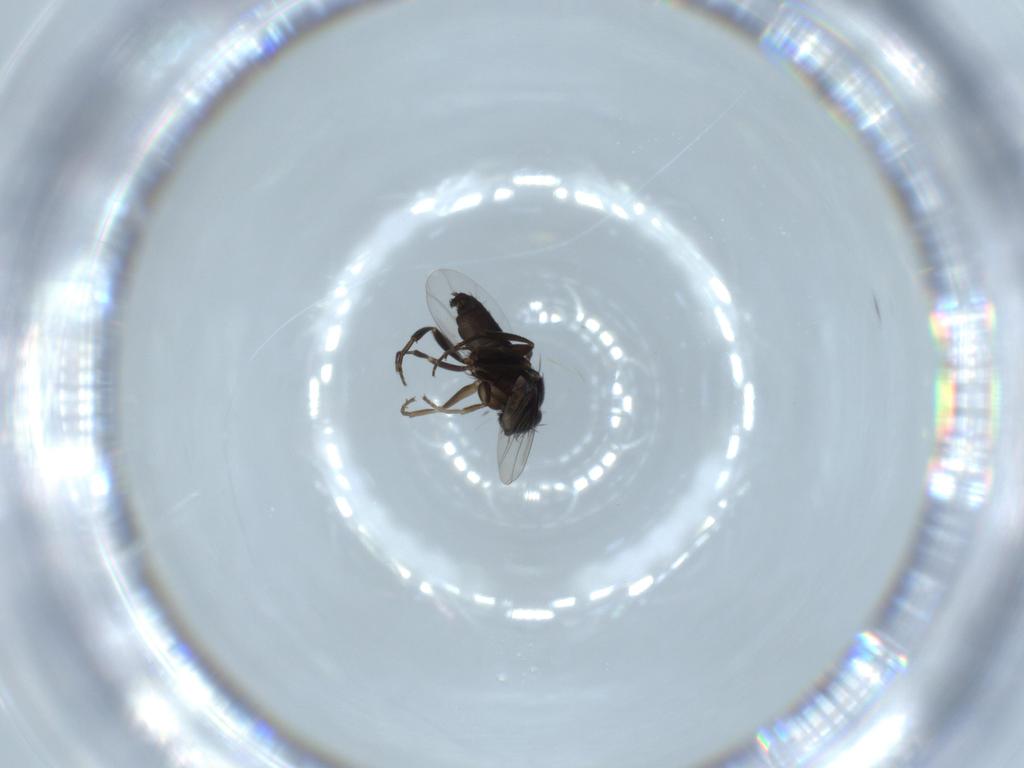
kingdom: Animalia
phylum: Arthropoda
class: Insecta
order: Diptera
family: Phoridae
